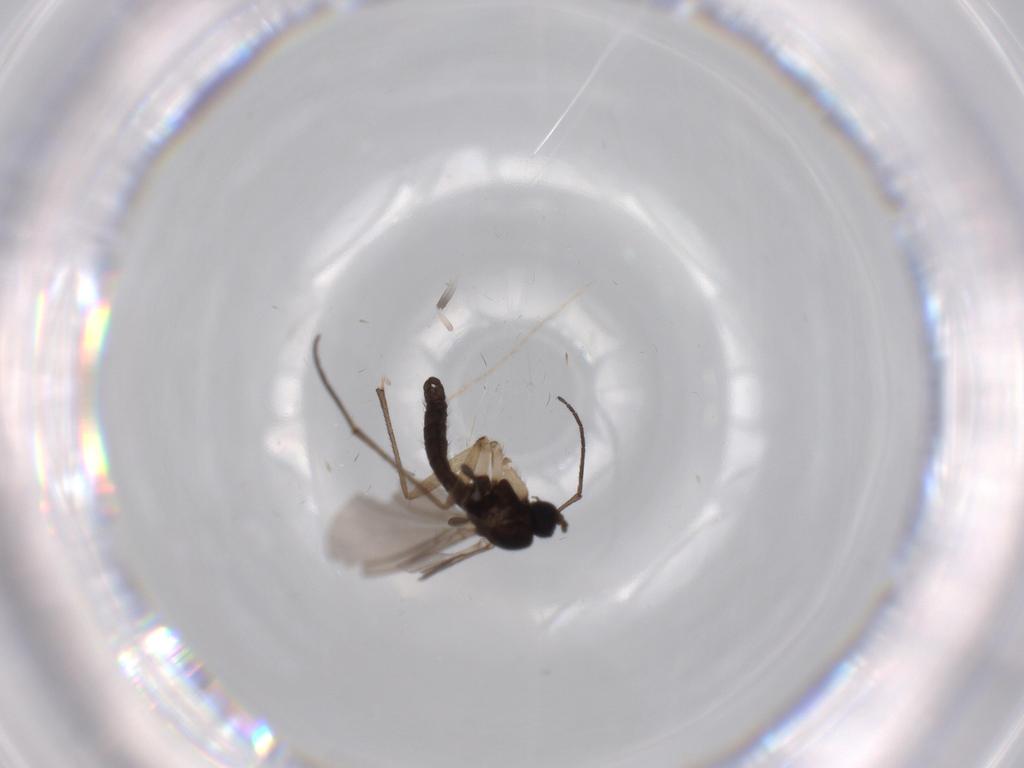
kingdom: Animalia
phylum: Arthropoda
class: Insecta
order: Diptera
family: Sciaridae
